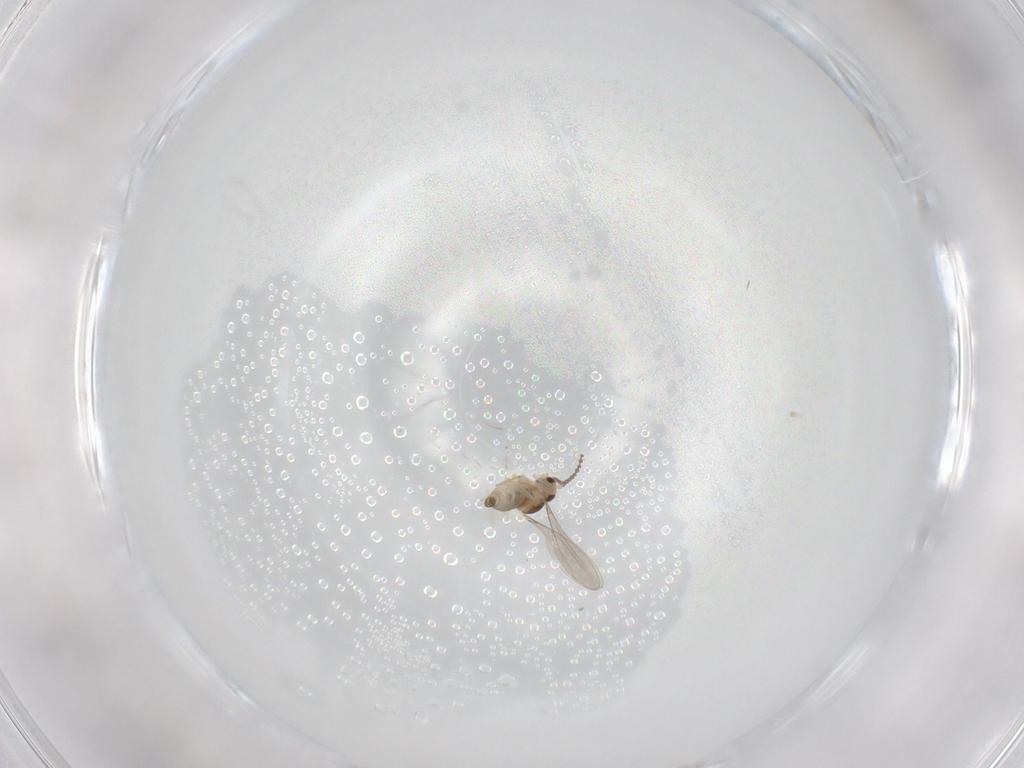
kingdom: Animalia
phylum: Arthropoda
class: Insecta
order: Diptera
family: Cecidomyiidae
